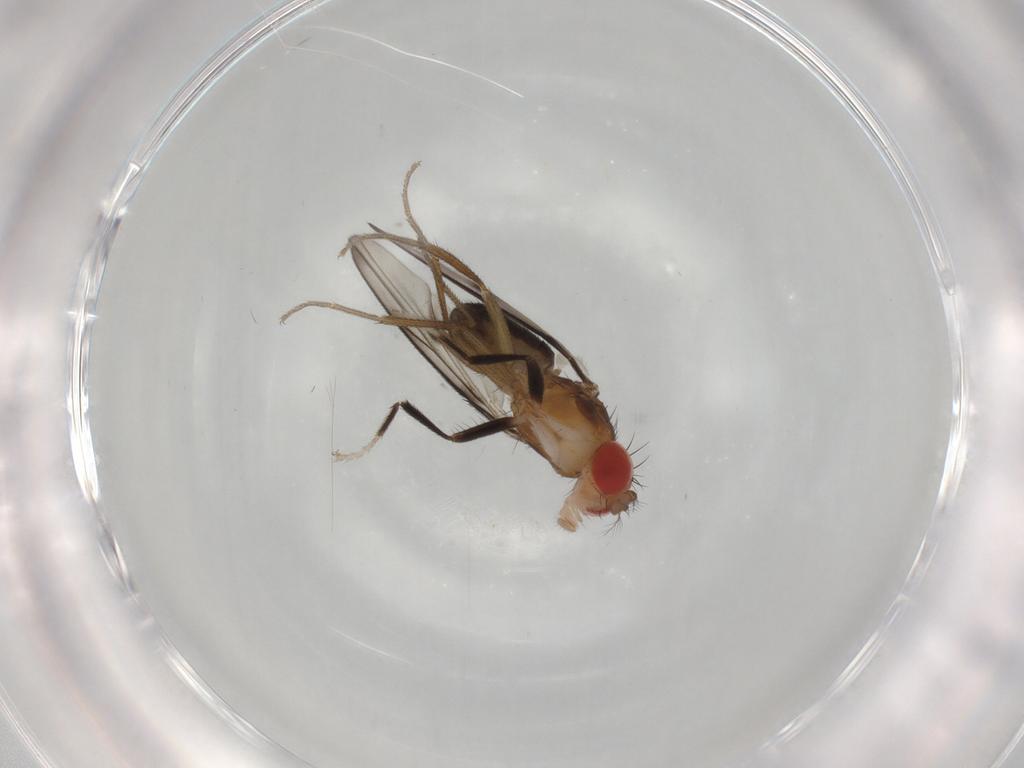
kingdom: Animalia
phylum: Arthropoda
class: Insecta
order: Diptera
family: Drosophilidae
